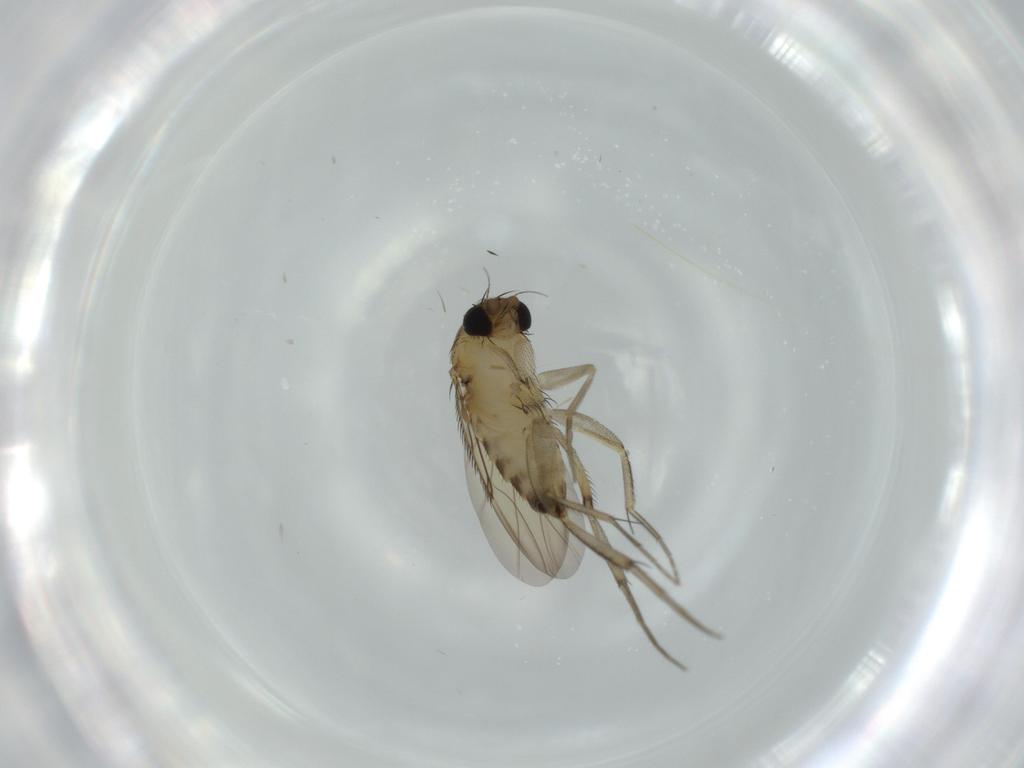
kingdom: Animalia
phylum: Arthropoda
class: Insecta
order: Diptera
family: Phoridae
